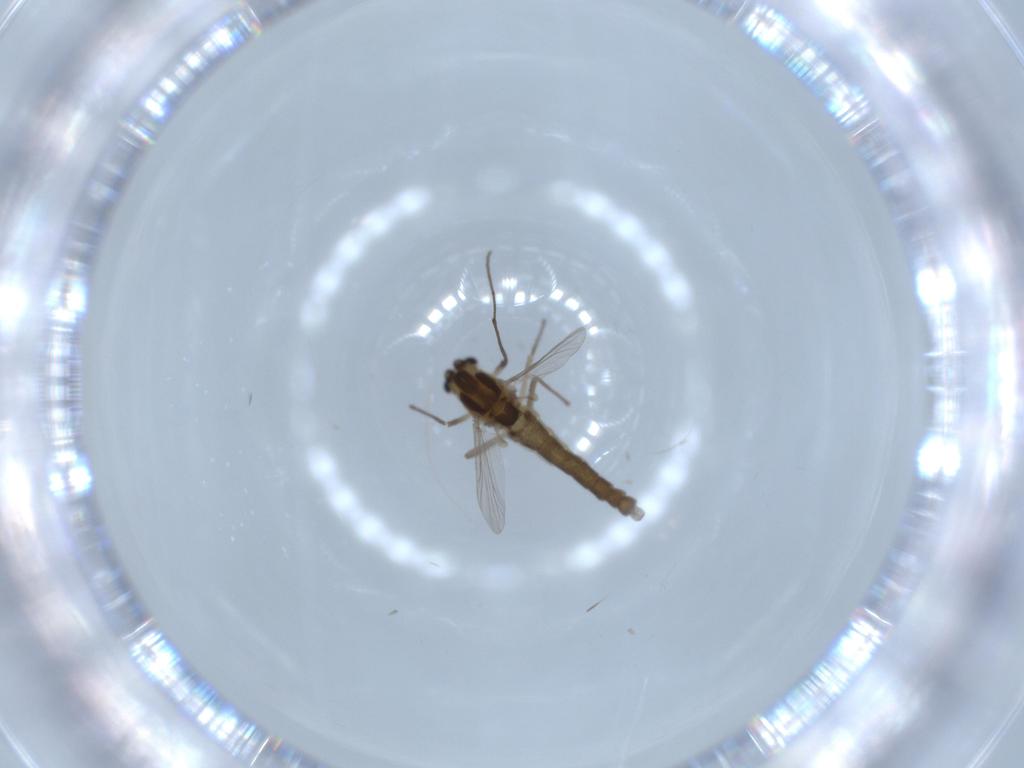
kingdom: Animalia
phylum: Arthropoda
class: Insecta
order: Diptera
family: Chironomidae
